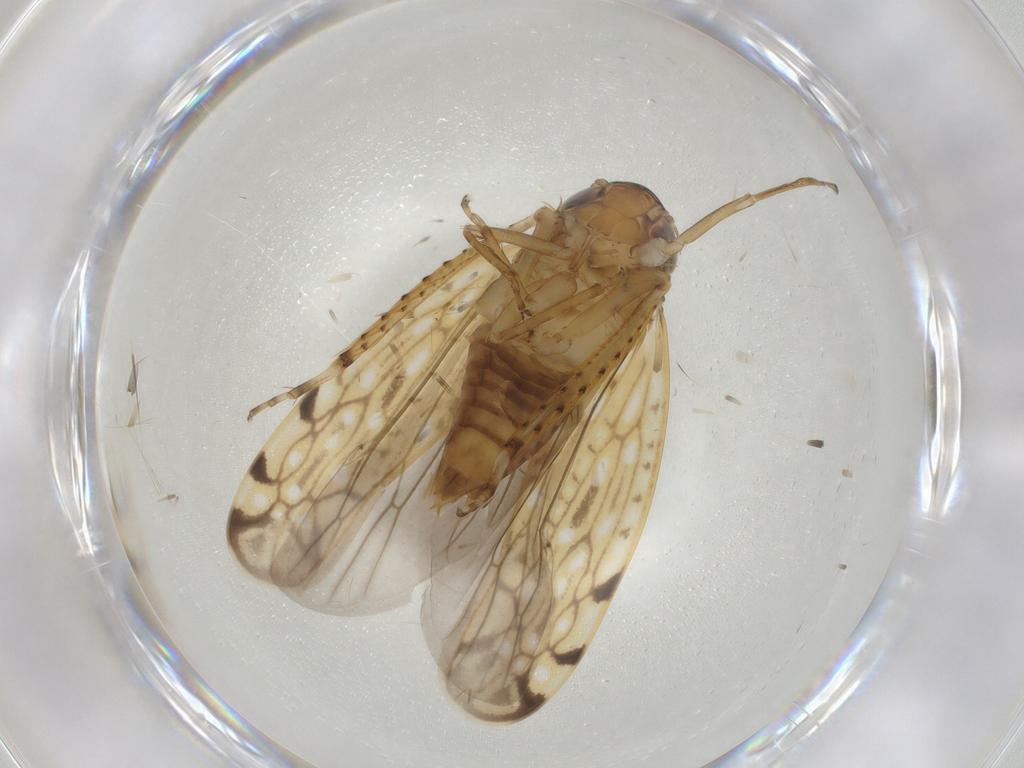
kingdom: Animalia
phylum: Arthropoda
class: Insecta
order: Hemiptera
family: Cicadellidae
